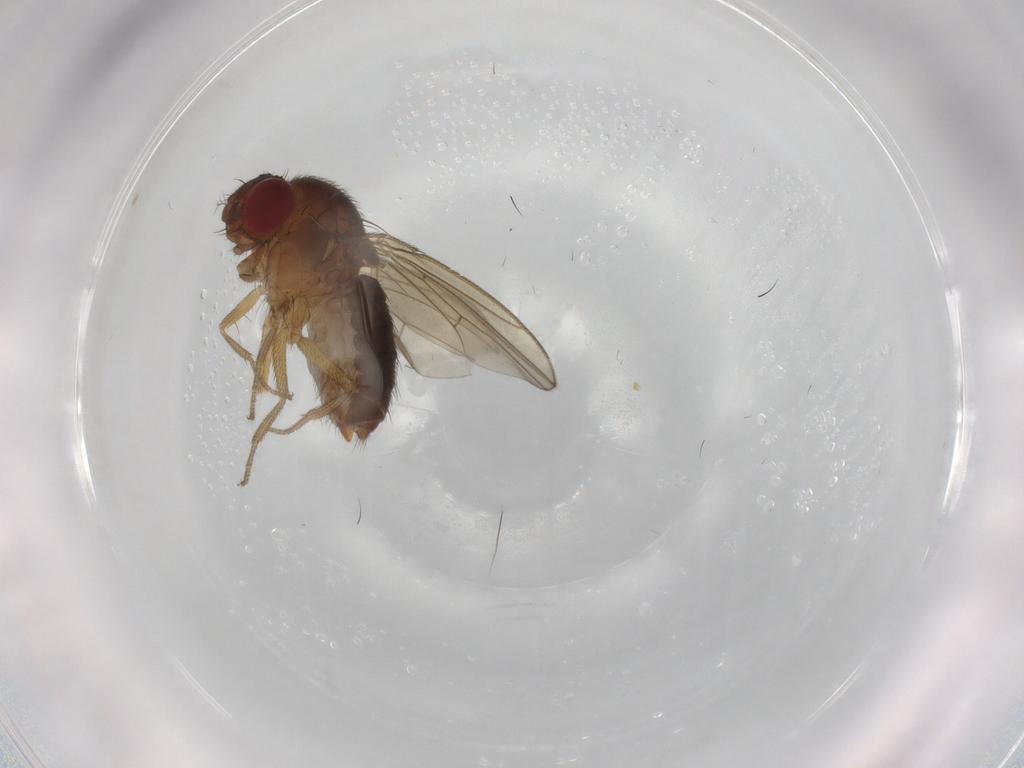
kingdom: Animalia
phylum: Arthropoda
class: Insecta
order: Diptera
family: Drosophilidae
